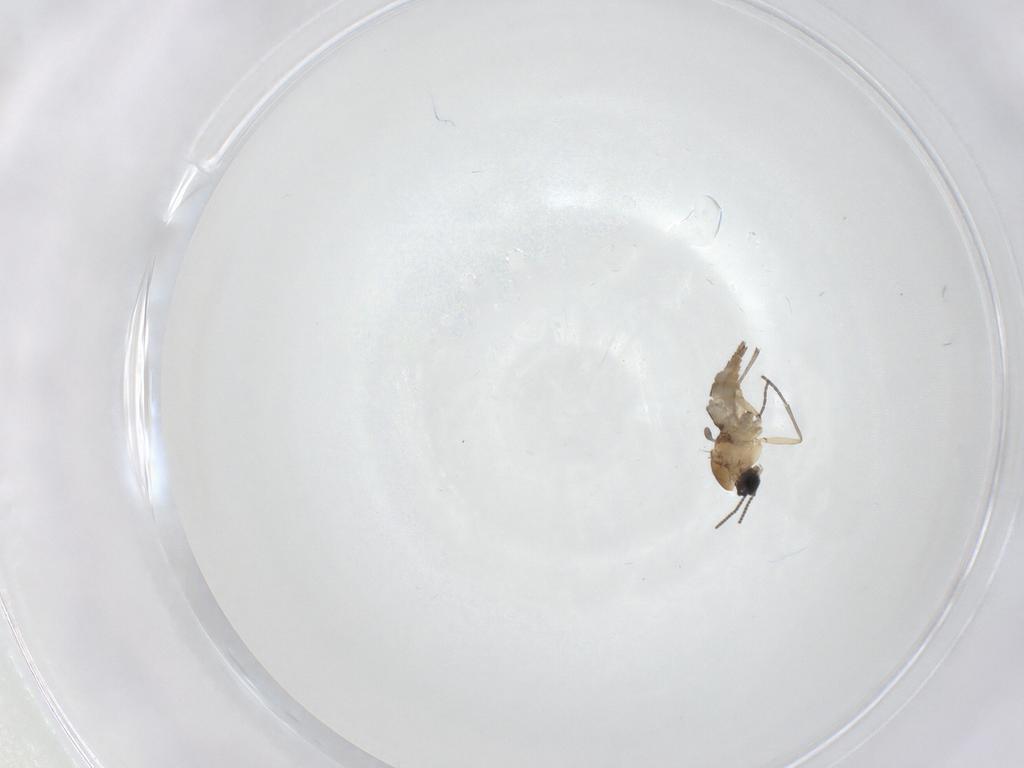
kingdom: Animalia
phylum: Arthropoda
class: Insecta
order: Diptera
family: Sciaridae
